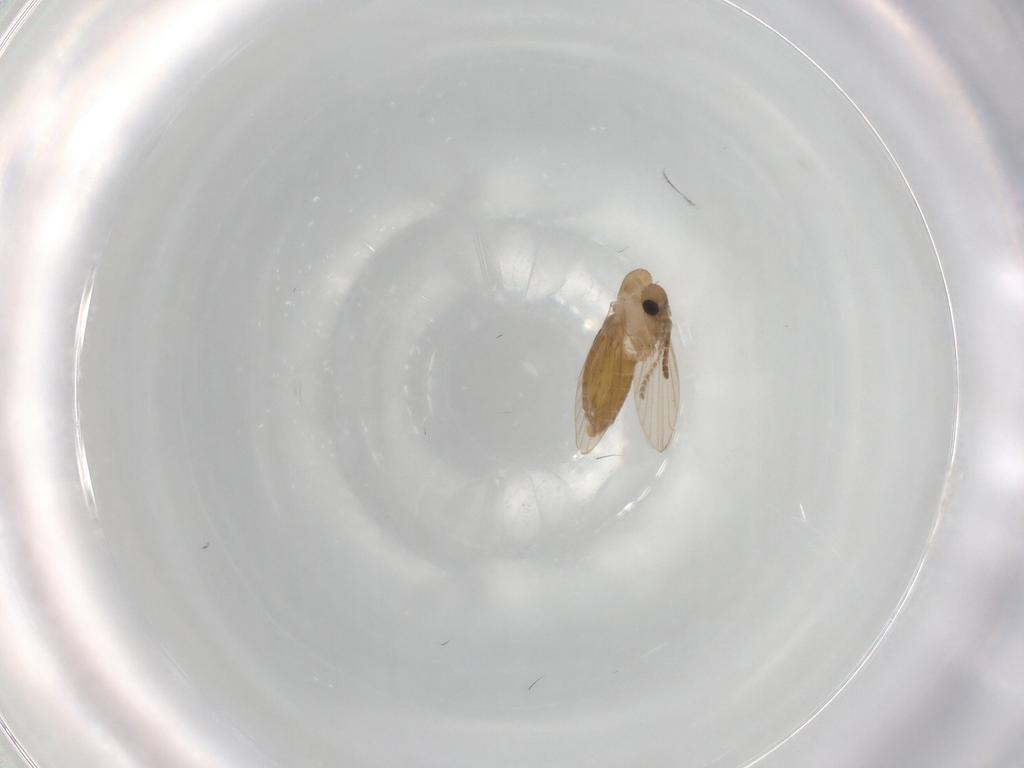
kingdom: Animalia
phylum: Arthropoda
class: Insecta
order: Diptera
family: Psychodidae
